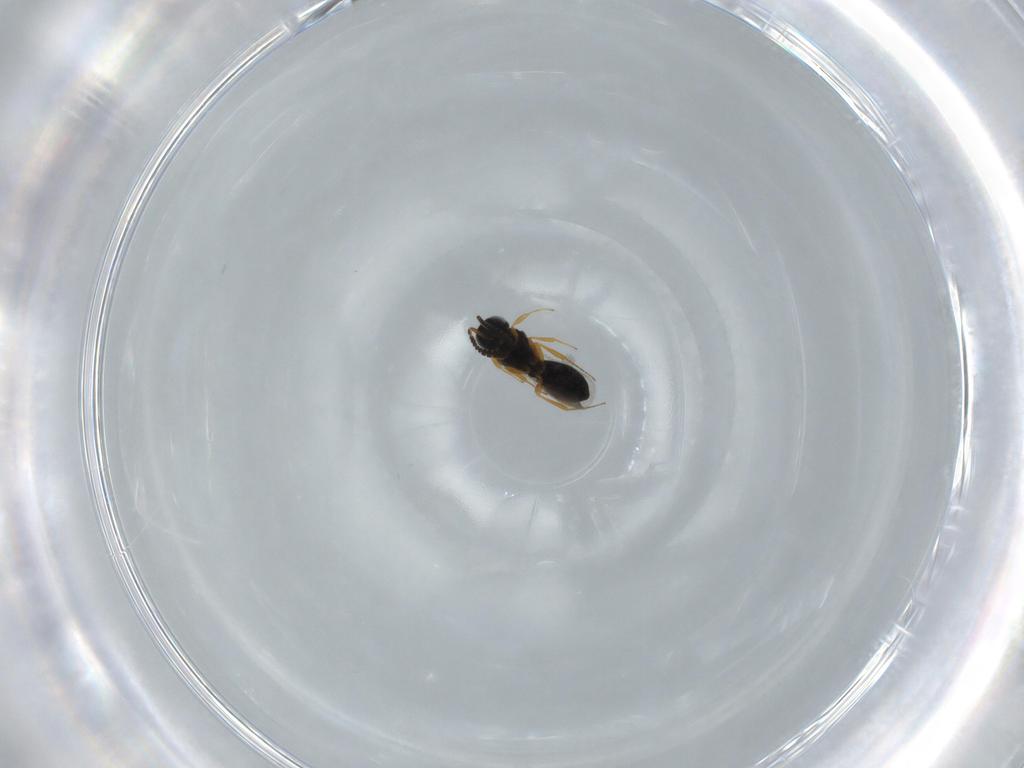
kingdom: Animalia
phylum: Arthropoda
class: Insecta
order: Hymenoptera
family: Scelionidae
